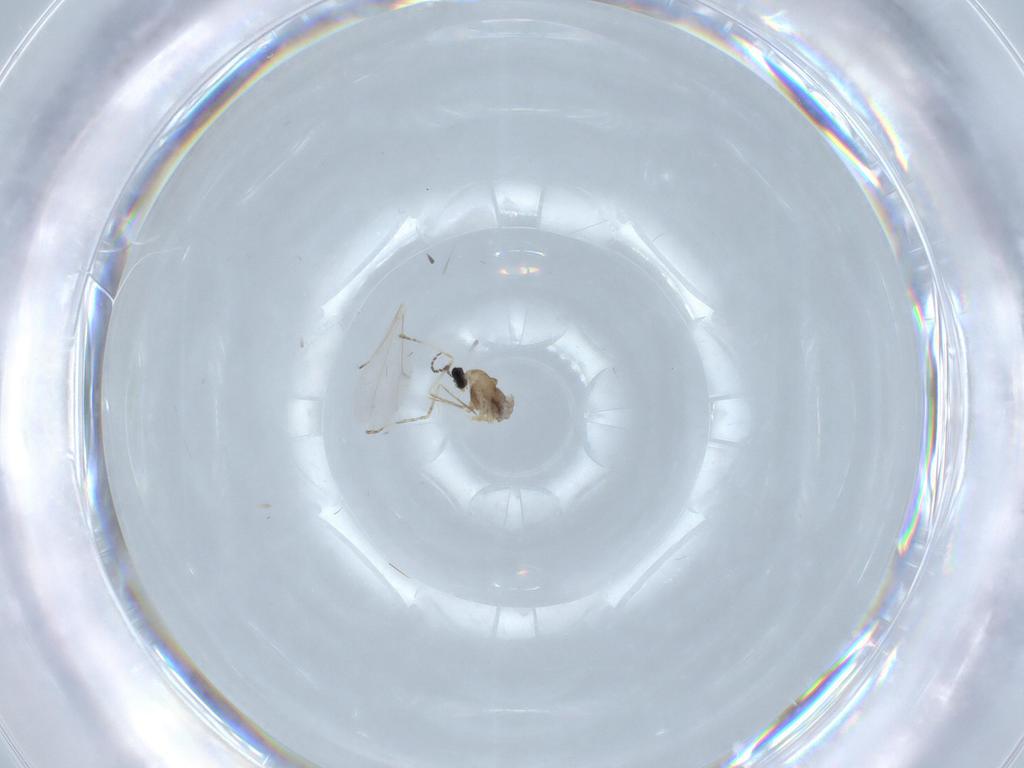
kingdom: Animalia
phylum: Arthropoda
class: Insecta
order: Diptera
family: Cecidomyiidae
